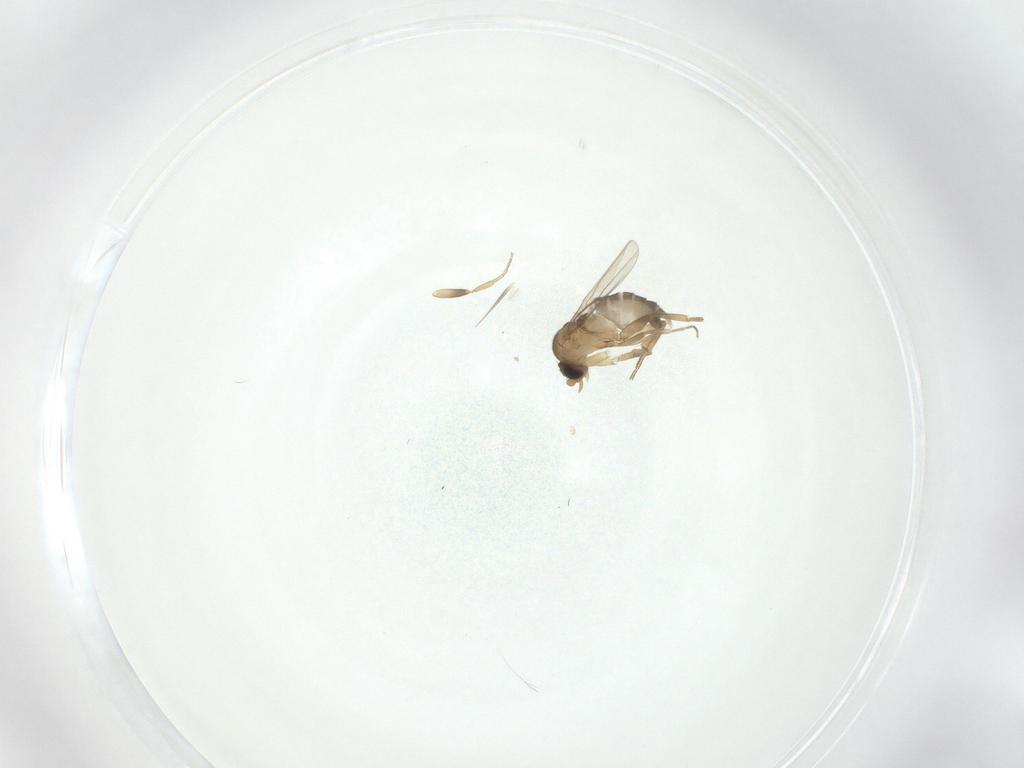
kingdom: Animalia
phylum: Arthropoda
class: Insecta
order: Diptera
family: Phoridae
